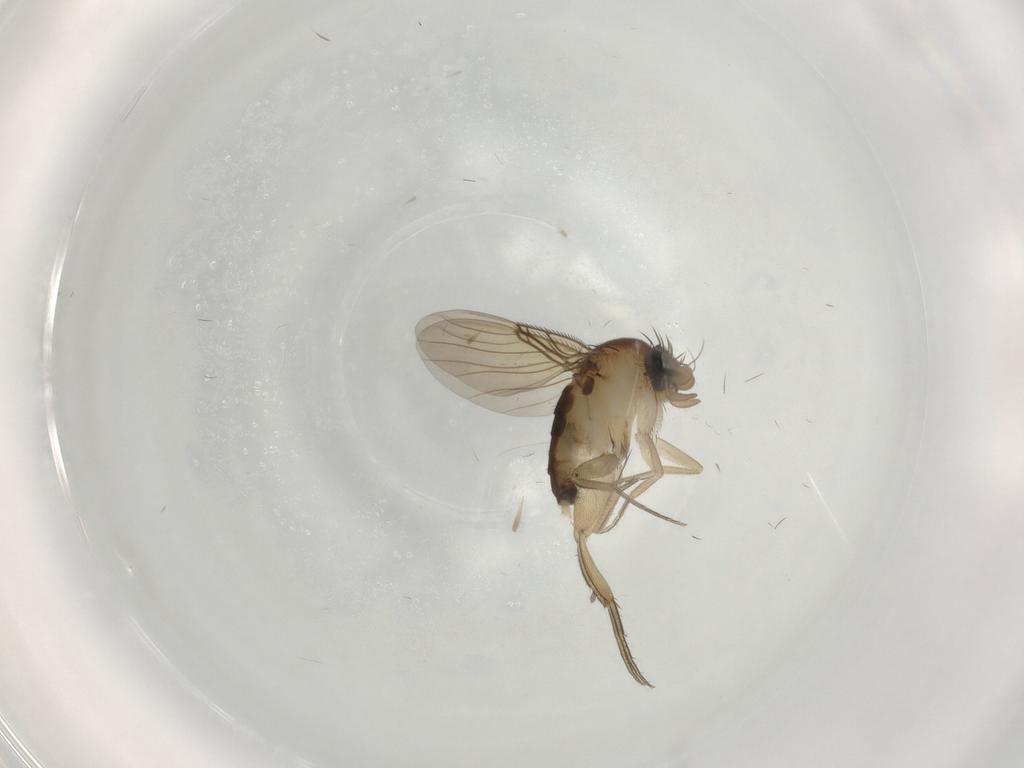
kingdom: Animalia
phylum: Arthropoda
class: Insecta
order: Diptera
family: Phoridae
